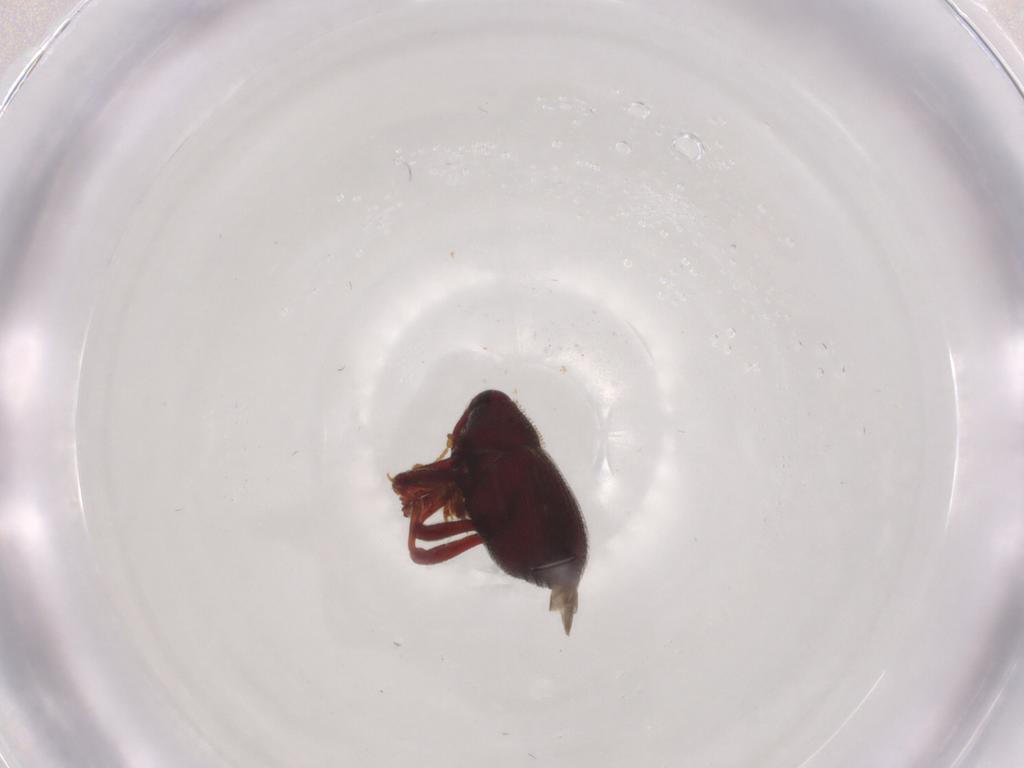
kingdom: Animalia
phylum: Arthropoda
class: Insecta
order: Coleoptera
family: Curculionidae
